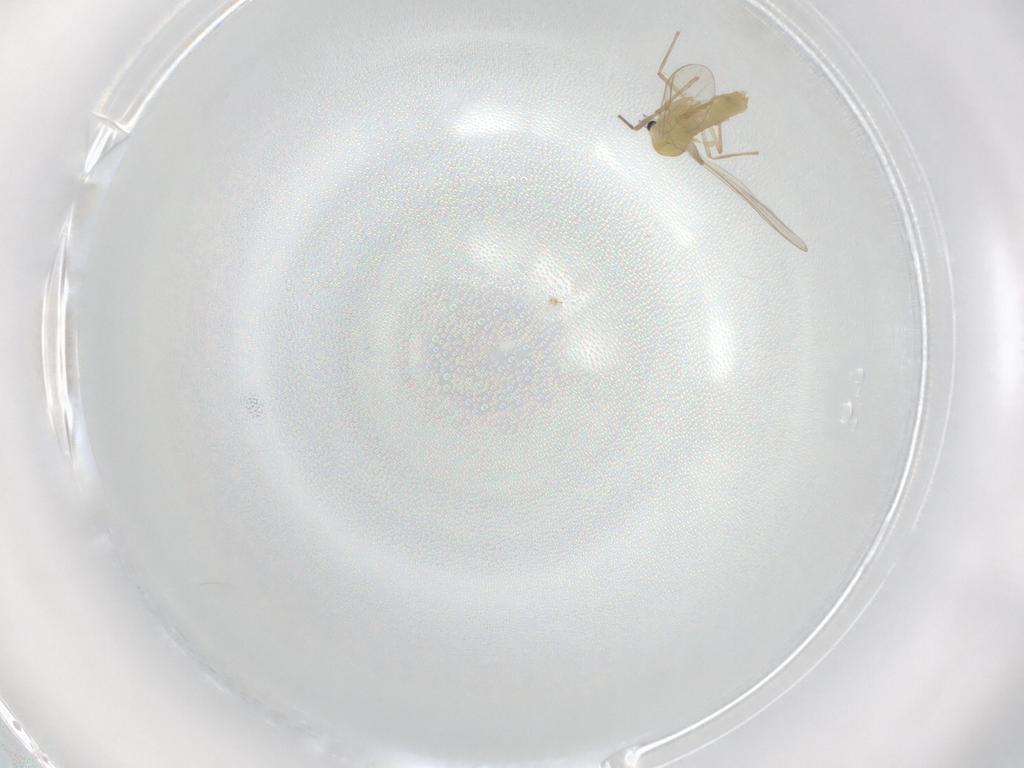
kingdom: Animalia
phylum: Arthropoda
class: Insecta
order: Diptera
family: Chironomidae
